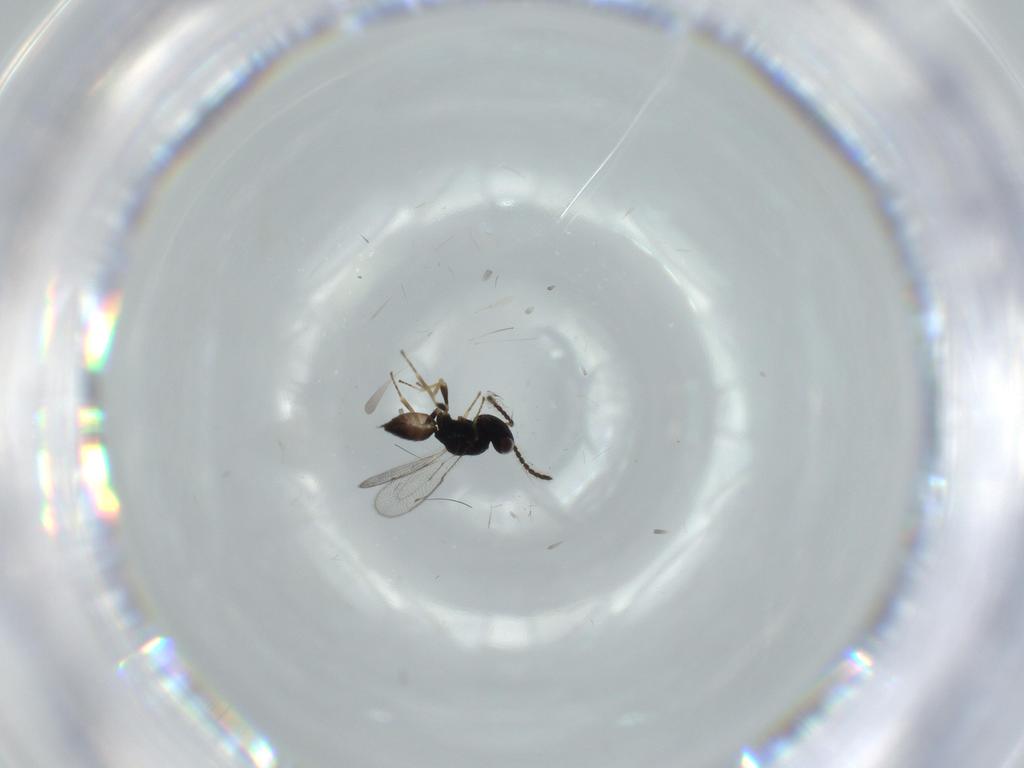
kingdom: Animalia
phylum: Arthropoda
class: Insecta
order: Hymenoptera
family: Pteromalidae
